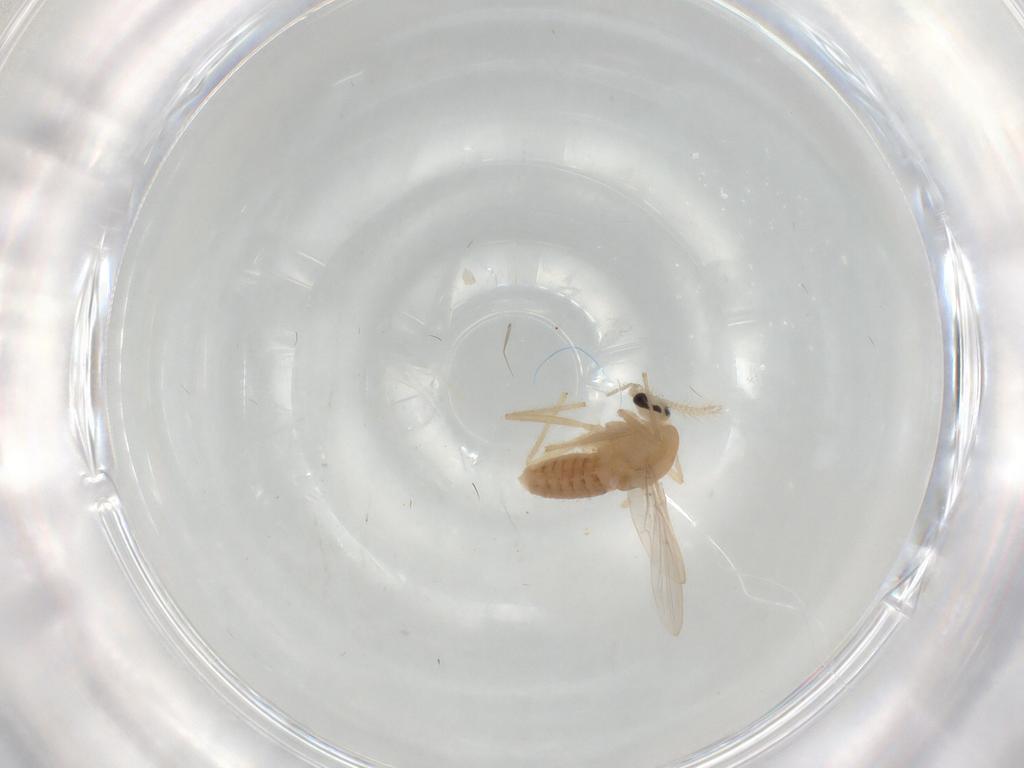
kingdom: Animalia
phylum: Arthropoda
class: Insecta
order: Diptera
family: Chironomidae
